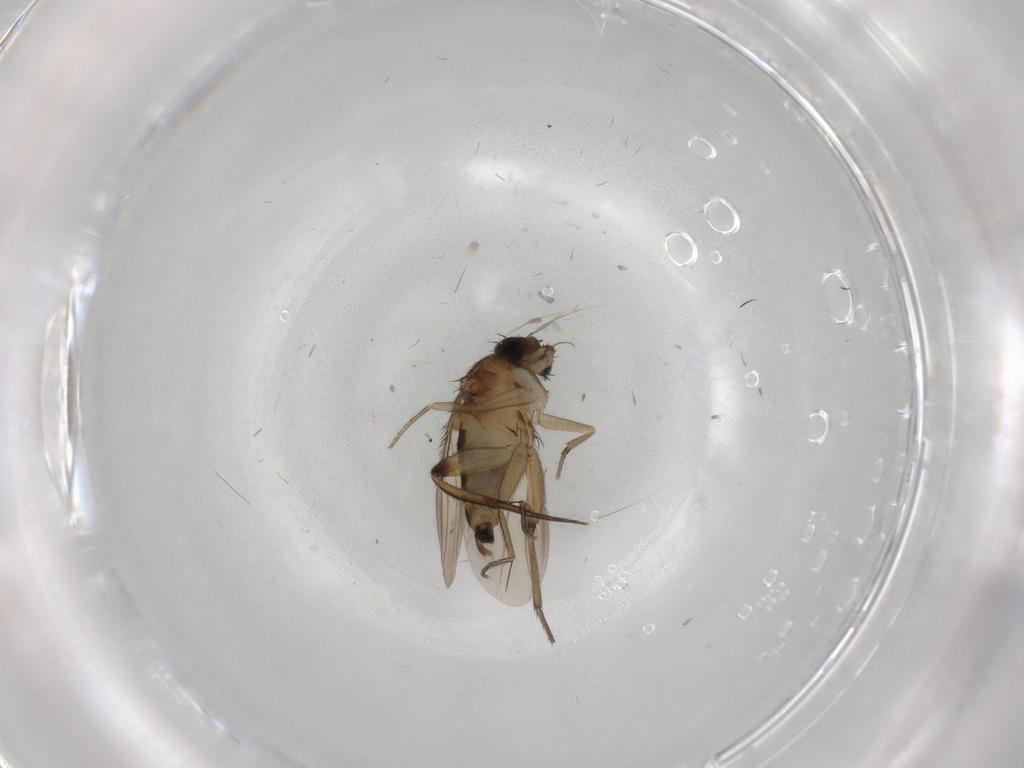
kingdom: Animalia
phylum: Arthropoda
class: Insecta
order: Diptera
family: Phoridae
